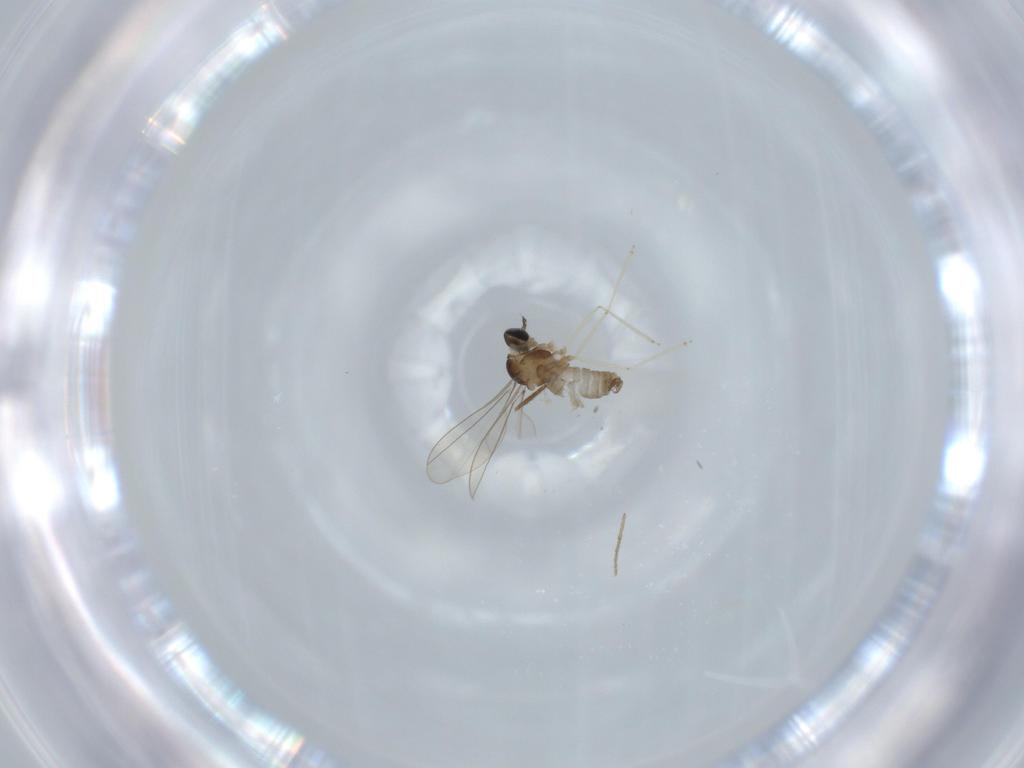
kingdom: Animalia
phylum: Arthropoda
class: Insecta
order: Diptera
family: Chironomidae
